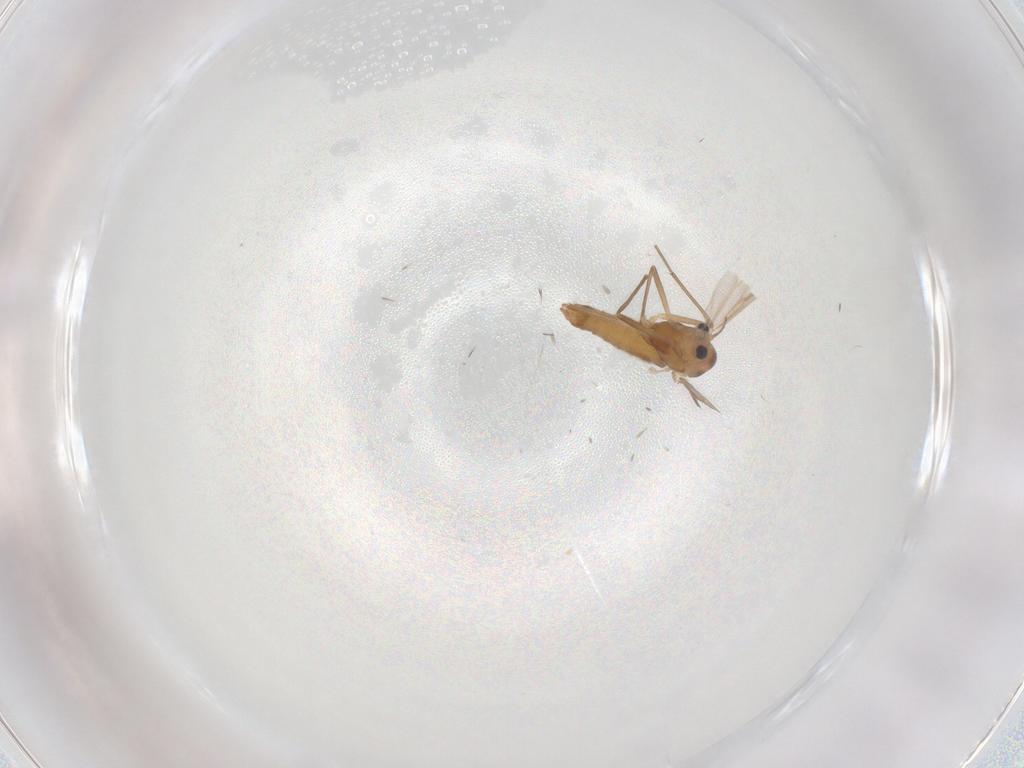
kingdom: Animalia
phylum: Arthropoda
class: Insecta
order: Diptera
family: Chironomidae
